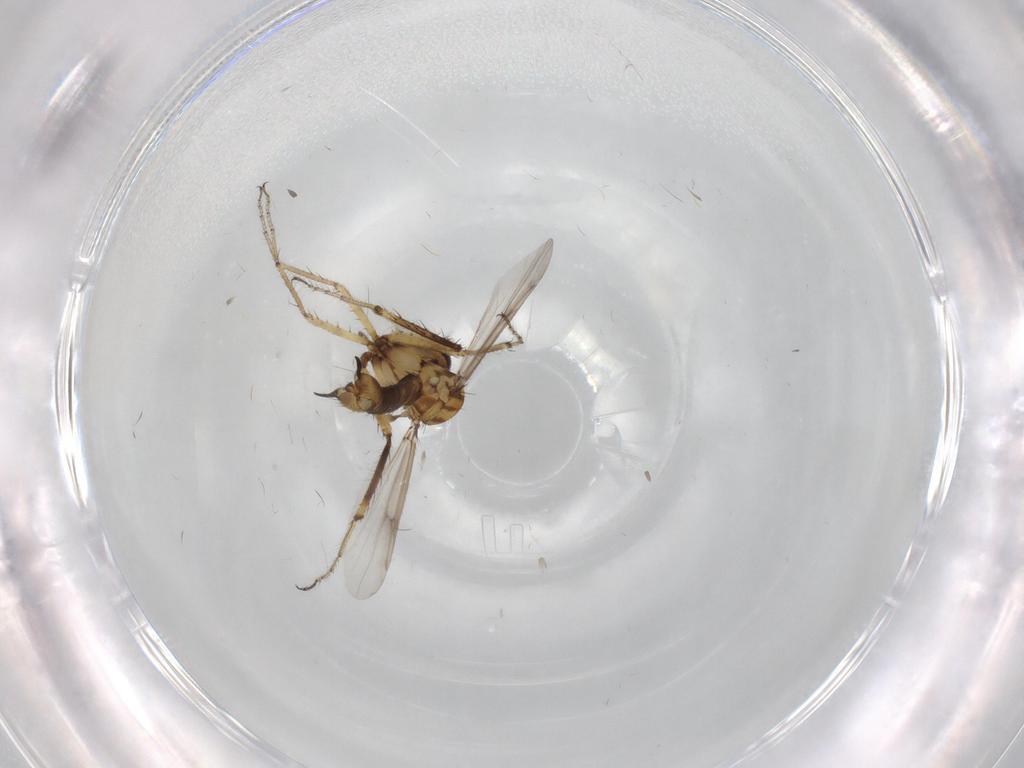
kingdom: Animalia
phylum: Arthropoda
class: Insecta
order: Diptera
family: Ceratopogonidae
